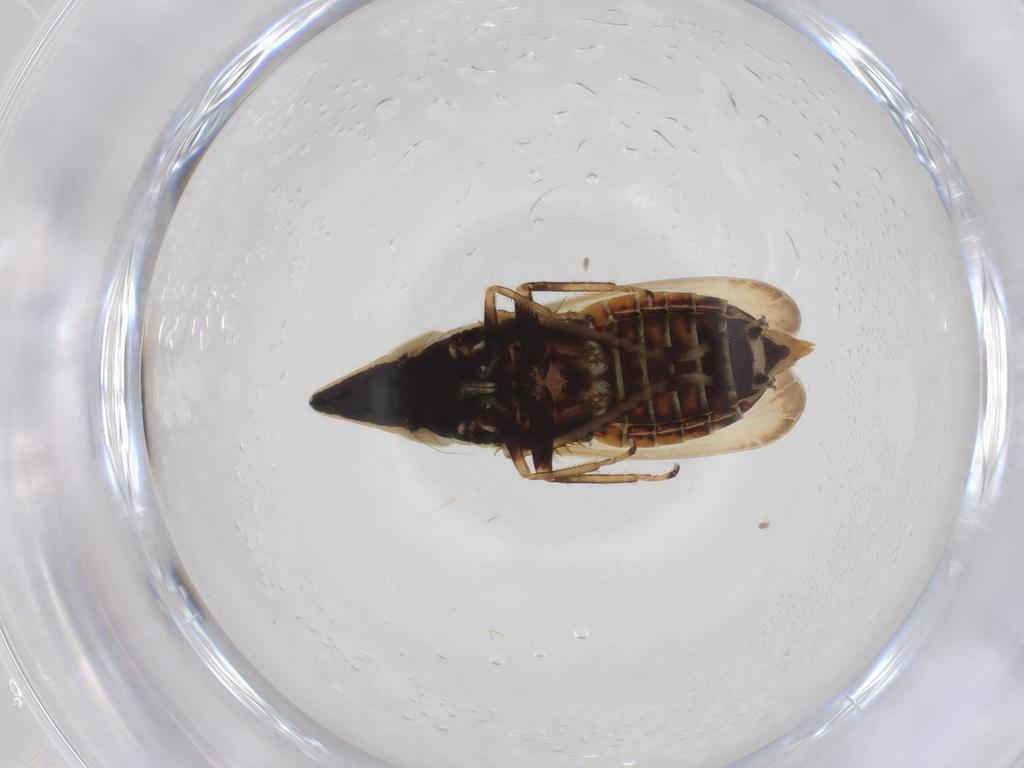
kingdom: Animalia
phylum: Arthropoda
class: Insecta
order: Hemiptera
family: Cicadellidae
